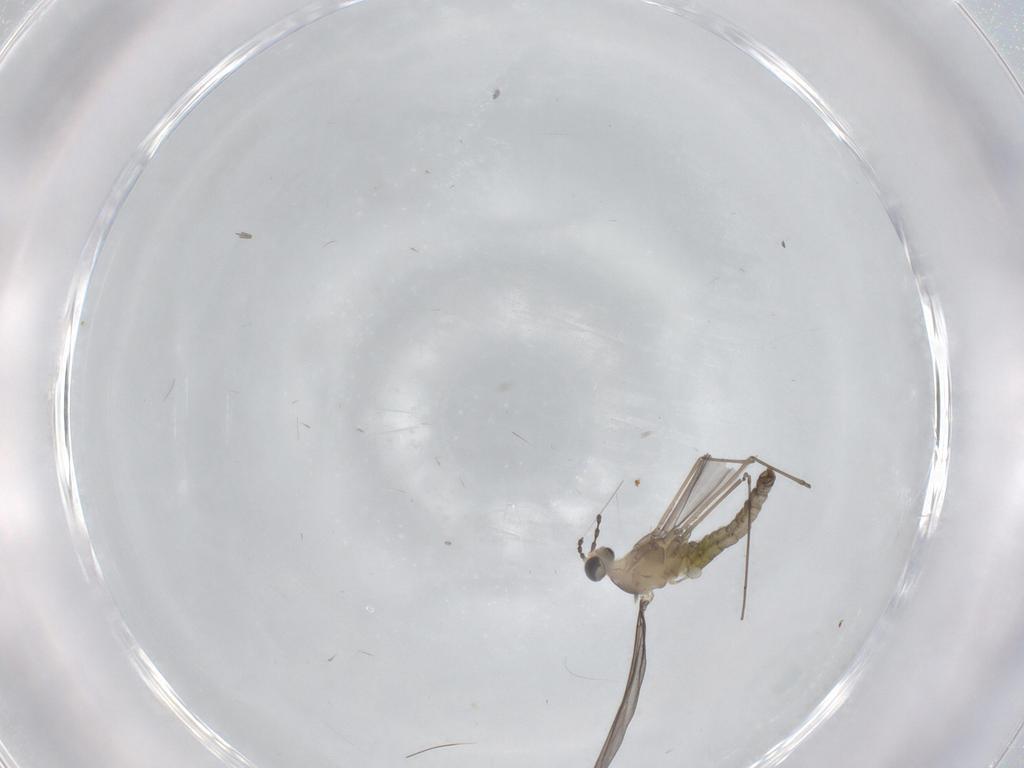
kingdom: Animalia
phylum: Arthropoda
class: Insecta
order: Diptera
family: Cecidomyiidae
